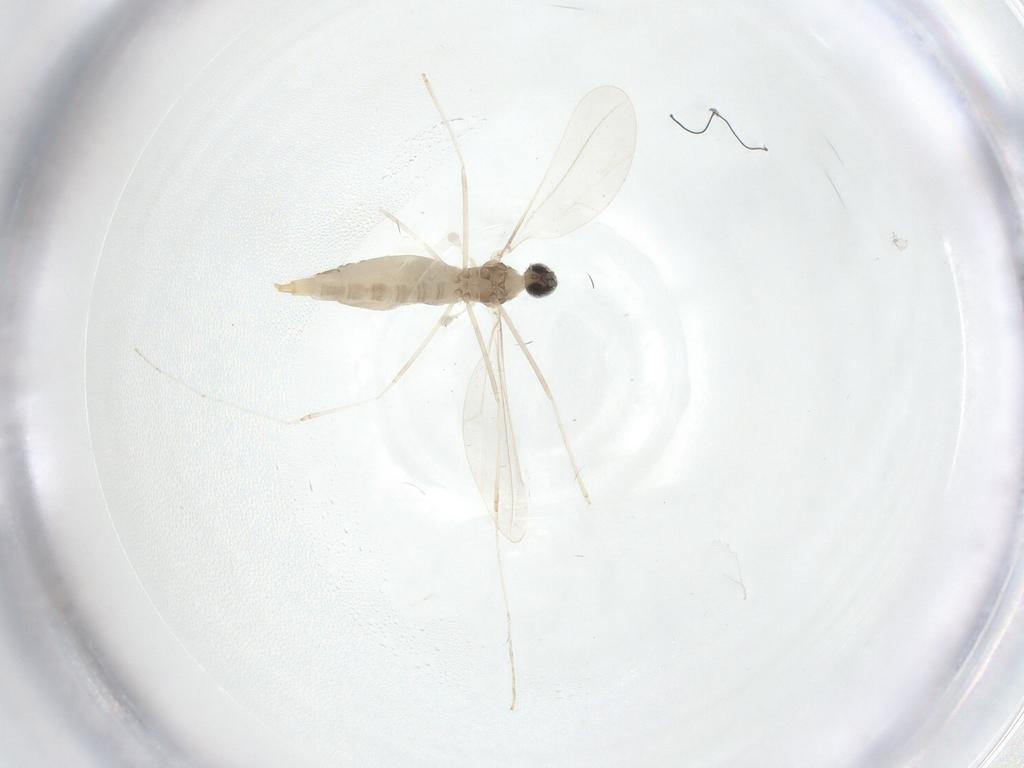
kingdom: Animalia
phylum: Arthropoda
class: Insecta
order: Diptera
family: Cecidomyiidae
